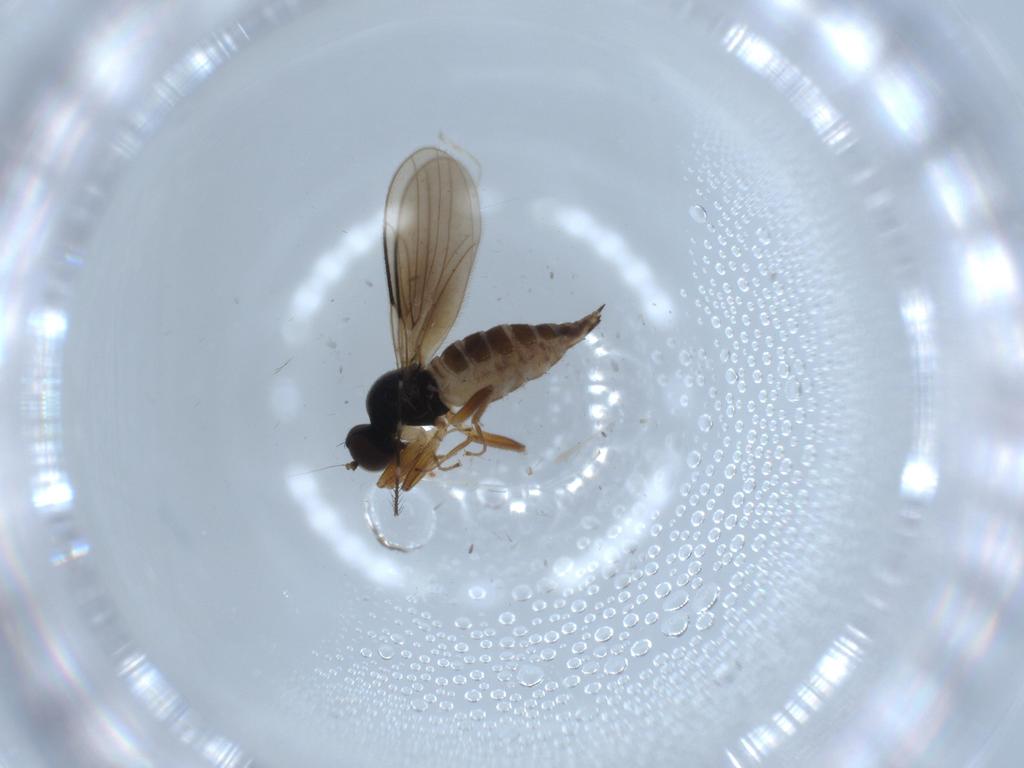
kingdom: Animalia
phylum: Arthropoda
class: Insecta
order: Diptera
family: Hybotidae
